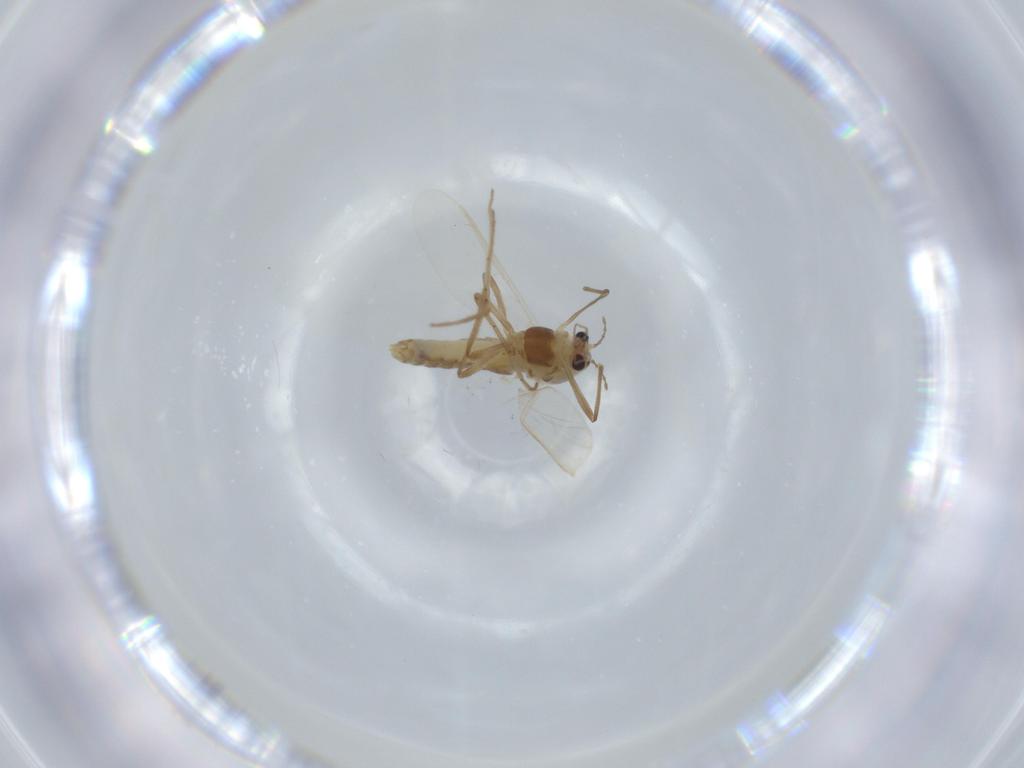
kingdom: Animalia
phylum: Arthropoda
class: Insecta
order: Diptera
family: Chironomidae
